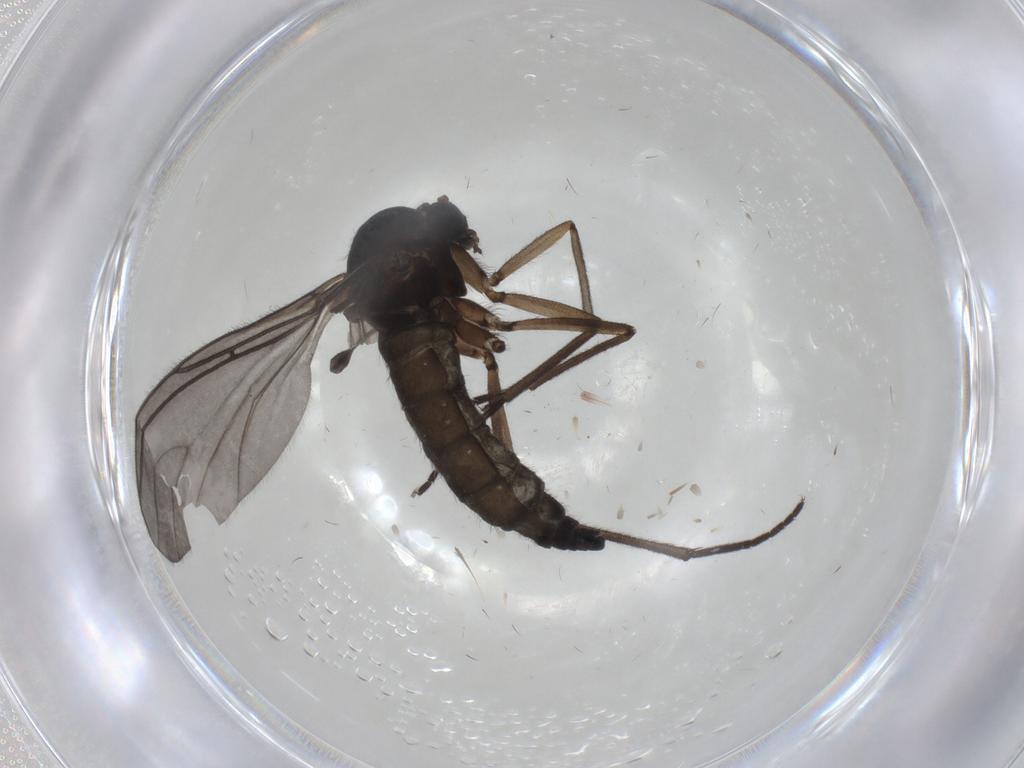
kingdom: Animalia
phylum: Arthropoda
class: Insecta
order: Diptera
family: Sciaridae
